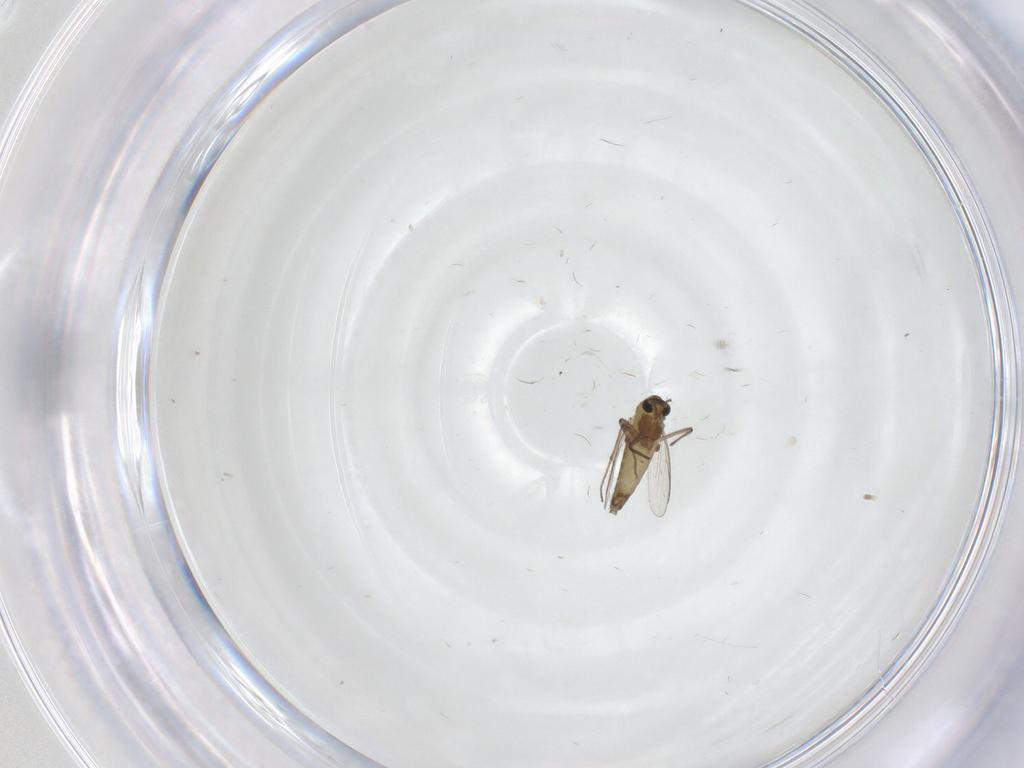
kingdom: Animalia
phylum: Arthropoda
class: Insecta
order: Diptera
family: Chironomidae
